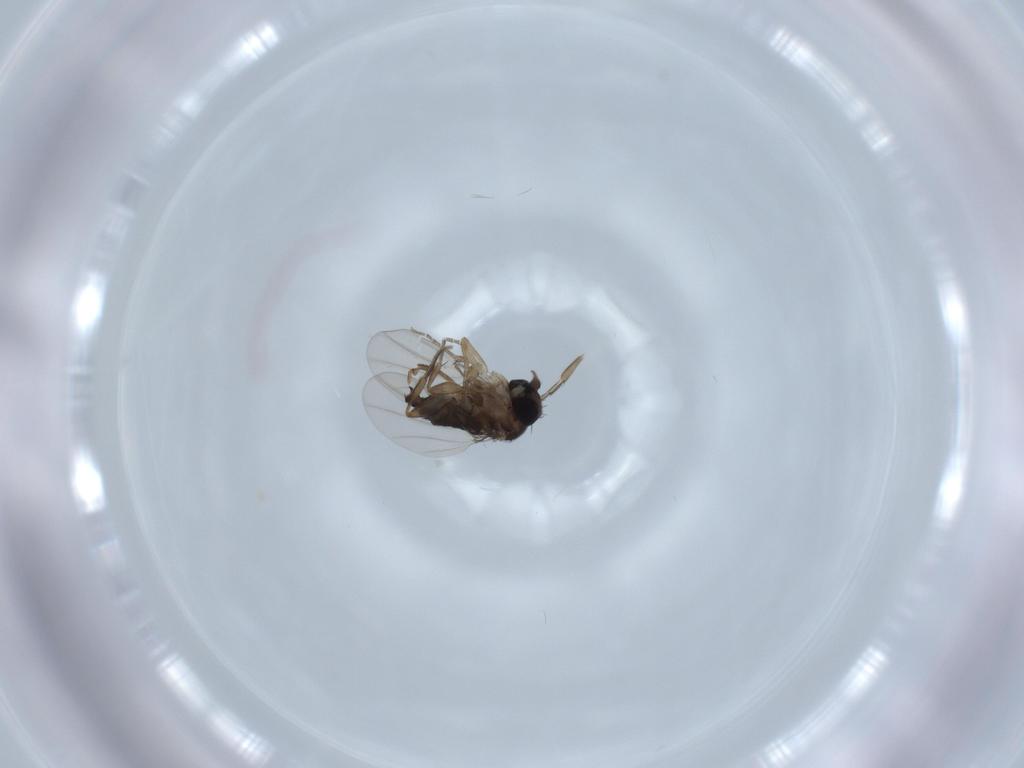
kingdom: Animalia
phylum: Arthropoda
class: Insecta
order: Diptera
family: Phoridae
